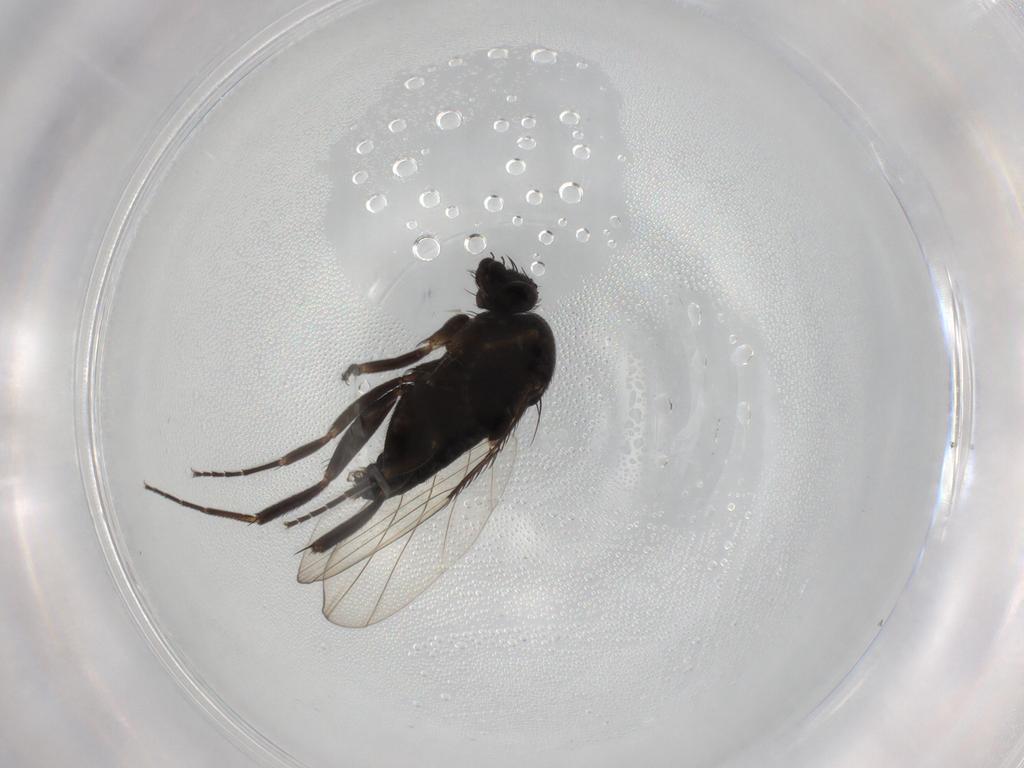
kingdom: Animalia
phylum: Arthropoda
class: Insecta
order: Diptera
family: Phoridae
